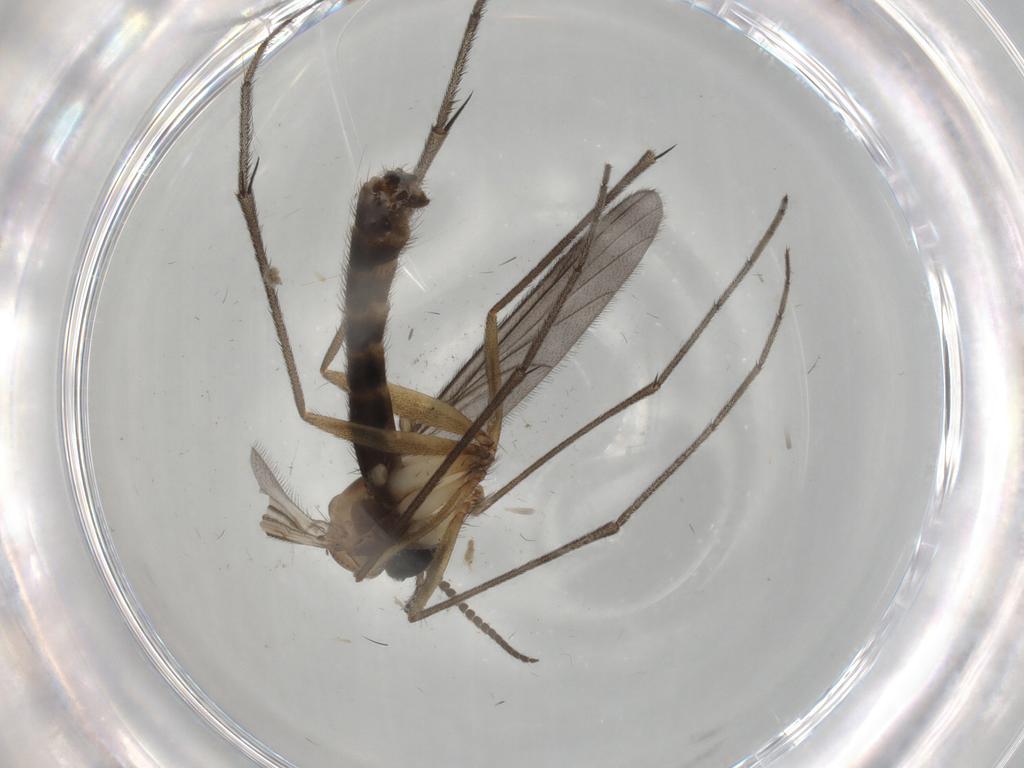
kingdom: Animalia
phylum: Arthropoda
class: Insecta
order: Diptera
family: Ditomyiidae
